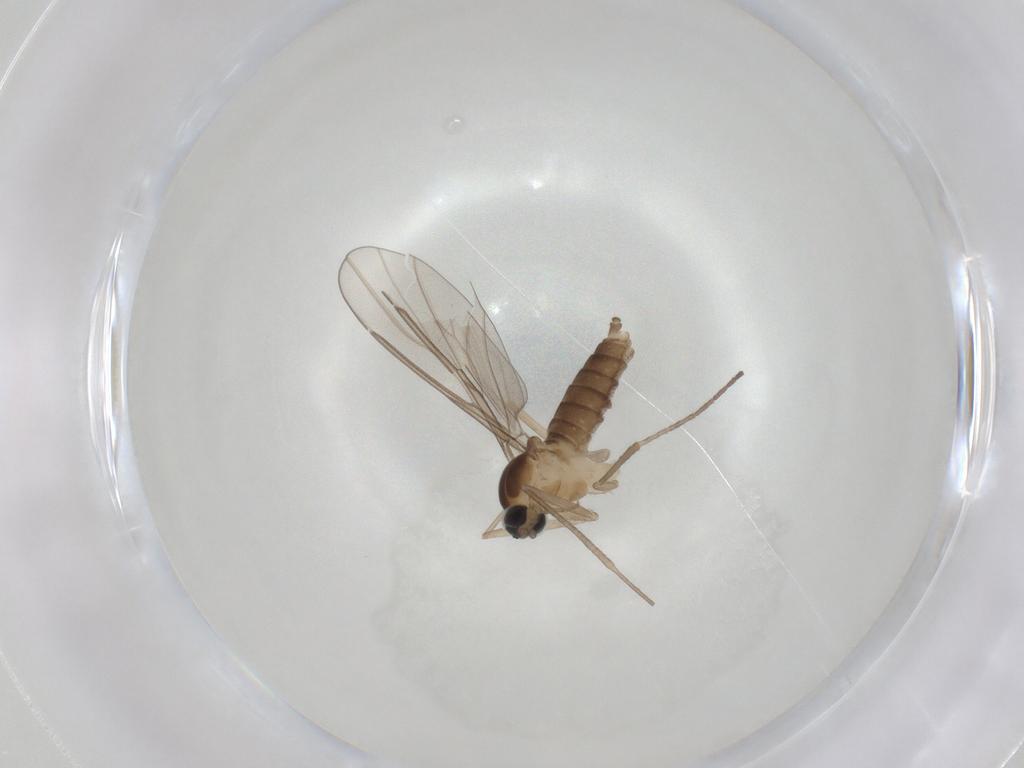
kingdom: Animalia
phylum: Arthropoda
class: Insecta
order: Diptera
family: Cecidomyiidae
